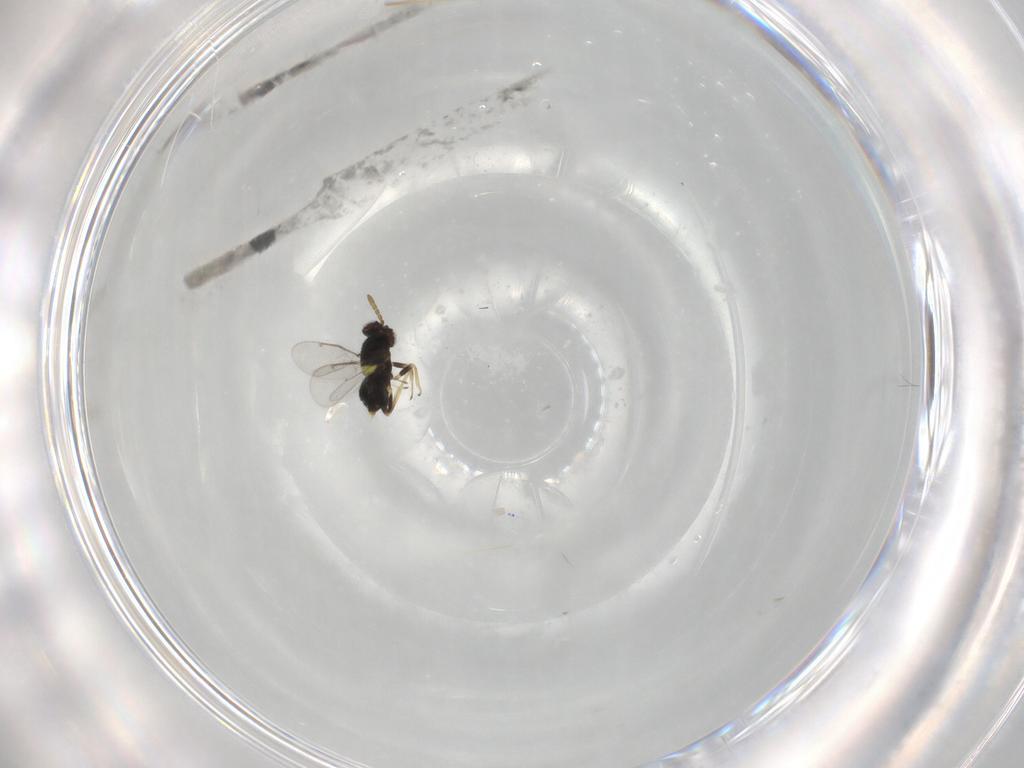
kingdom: Animalia
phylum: Arthropoda
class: Insecta
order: Hymenoptera
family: Aphelinidae
